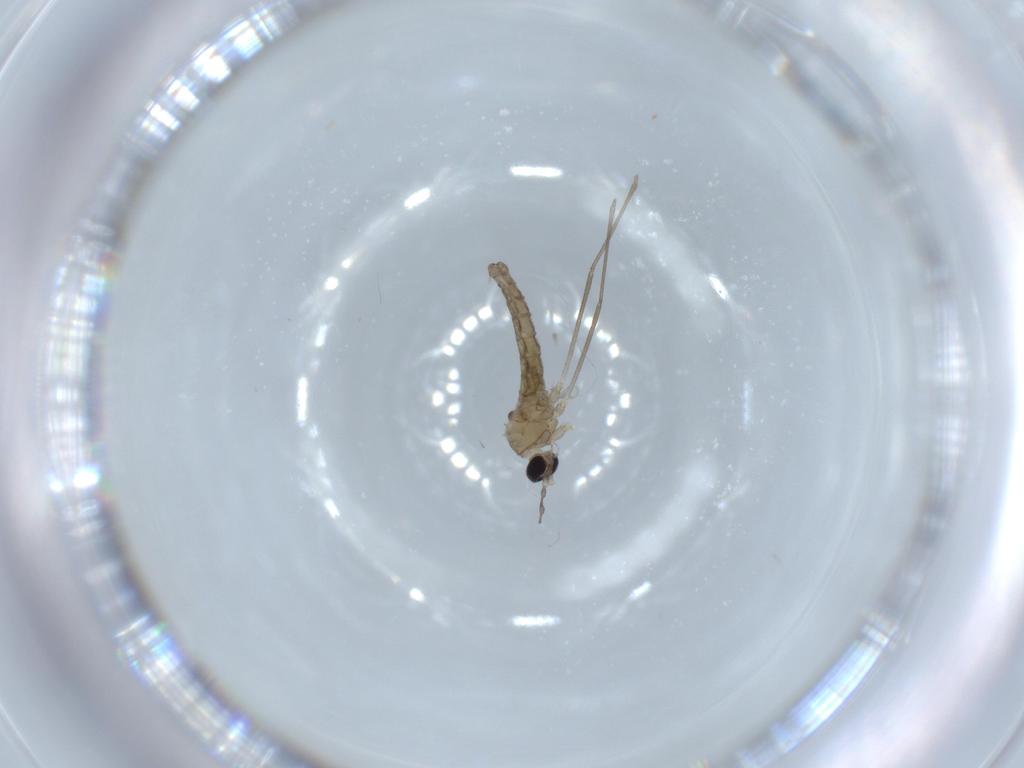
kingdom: Animalia
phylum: Arthropoda
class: Insecta
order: Diptera
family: Cecidomyiidae
